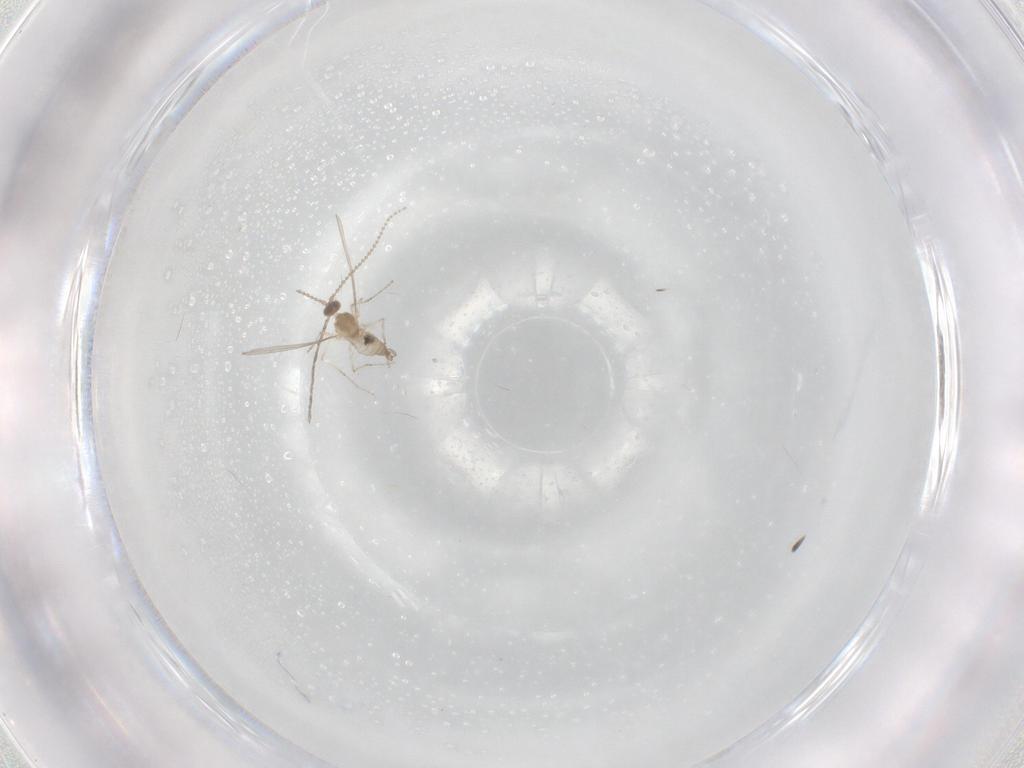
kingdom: Animalia
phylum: Arthropoda
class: Insecta
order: Diptera
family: Cecidomyiidae
